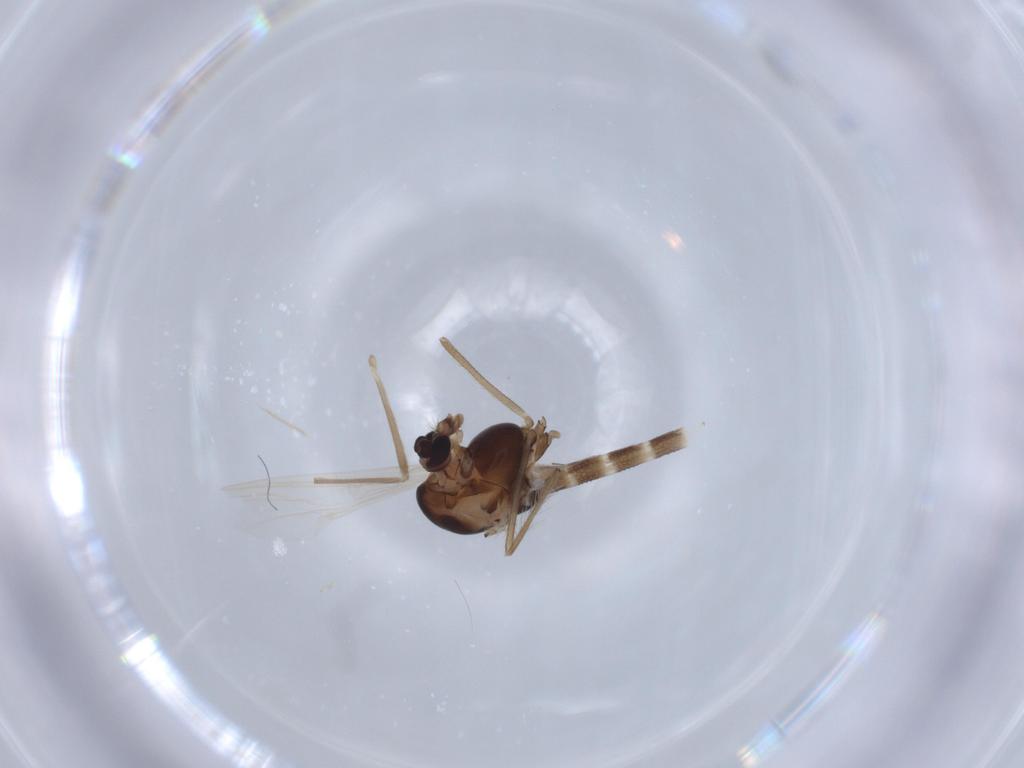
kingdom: Animalia
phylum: Arthropoda
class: Insecta
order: Diptera
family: Chironomidae
